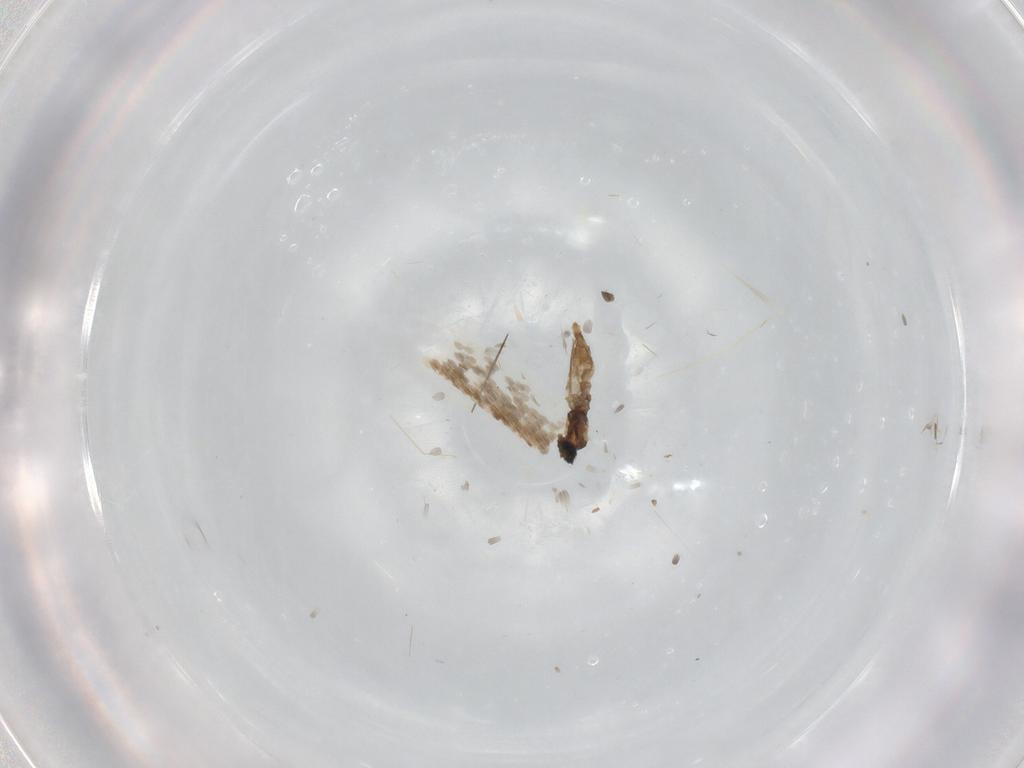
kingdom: Animalia
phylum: Arthropoda
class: Insecta
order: Diptera
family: Cecidomyiidae
